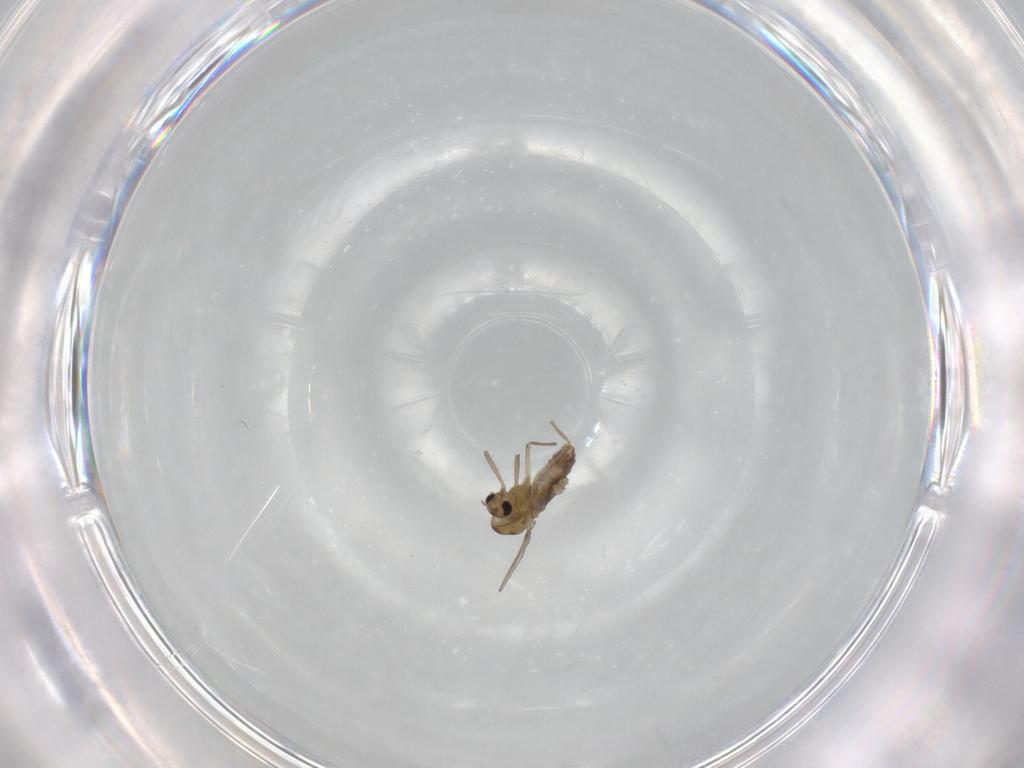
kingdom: Animalia
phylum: Arthropoda
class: Insecta
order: Diptera
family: Chironomidae
